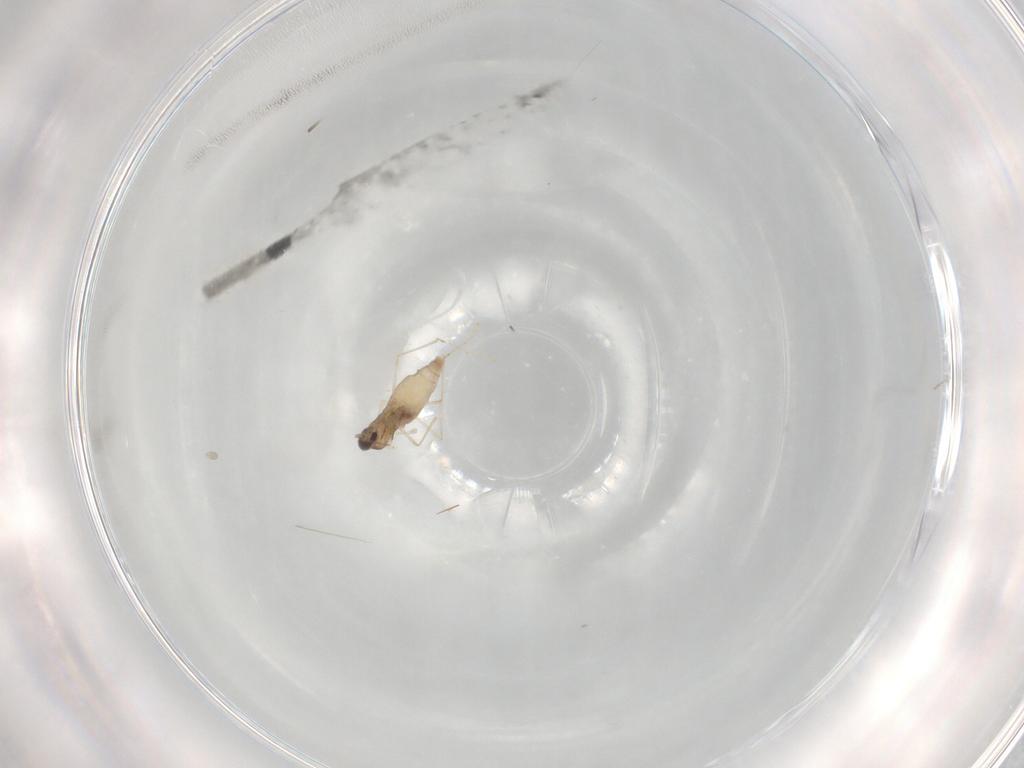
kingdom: Animalia
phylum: Arthropoda
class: Insecta
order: Diptera
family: Cecidomyiidae
